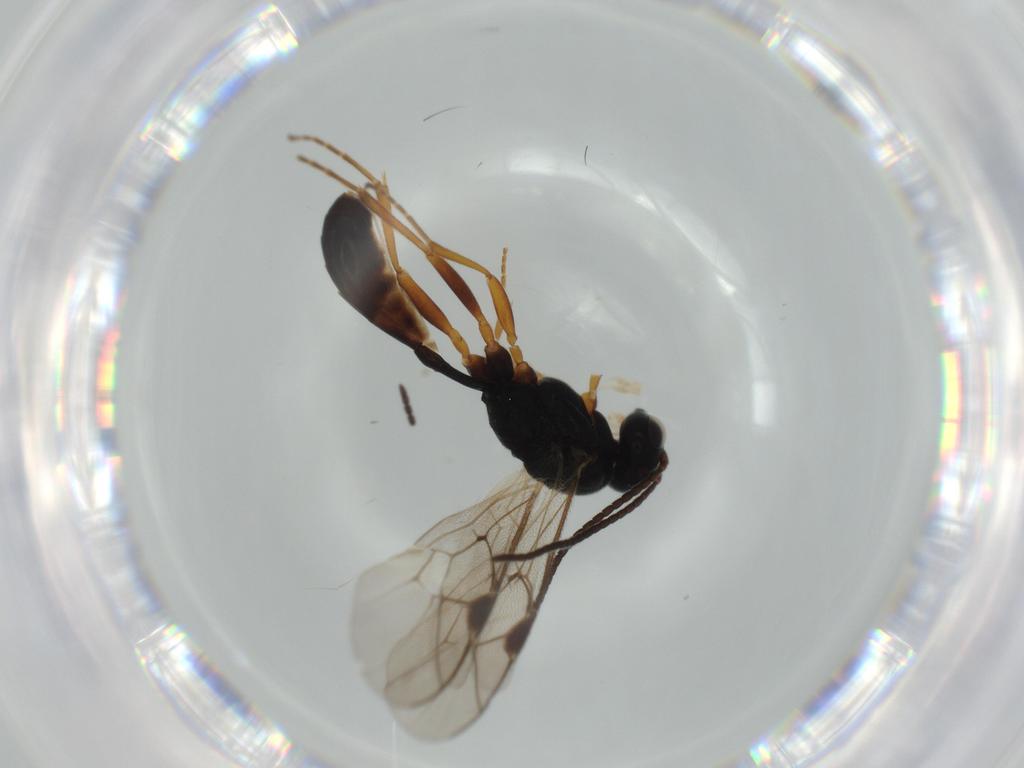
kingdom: Animalia
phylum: Arthropoda
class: Insecta
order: Hymenoptera
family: Ichneumonidae
